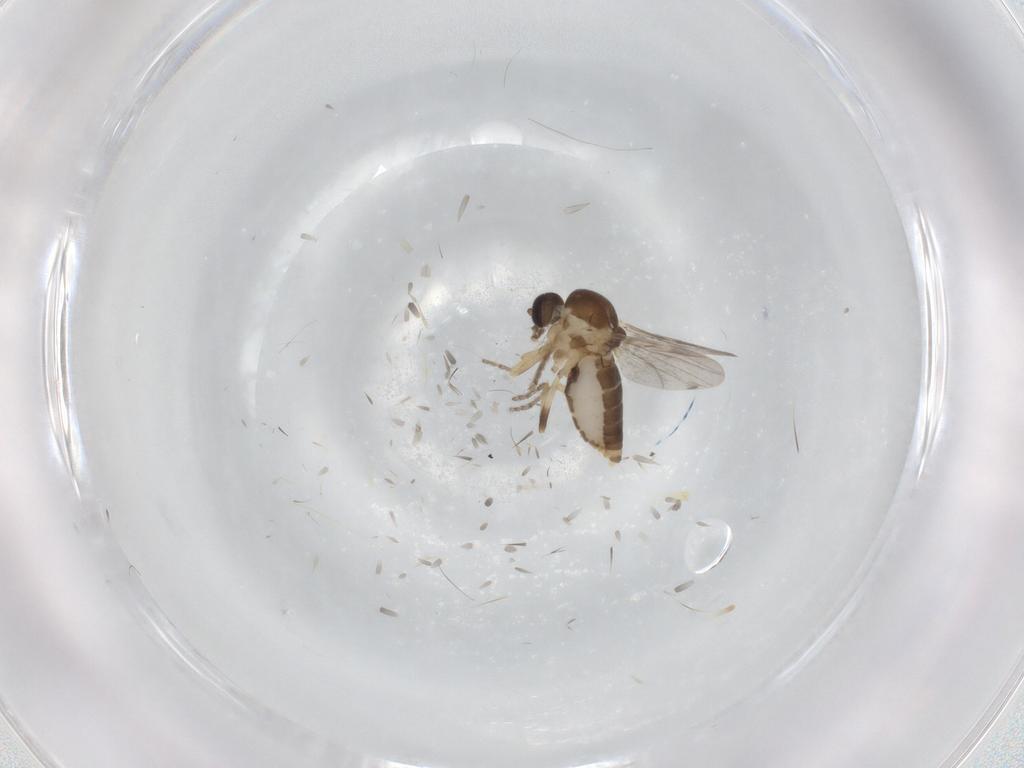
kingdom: Animalia
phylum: Arthropoda
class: Insecta
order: Diptera
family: Ceratopogonidae
